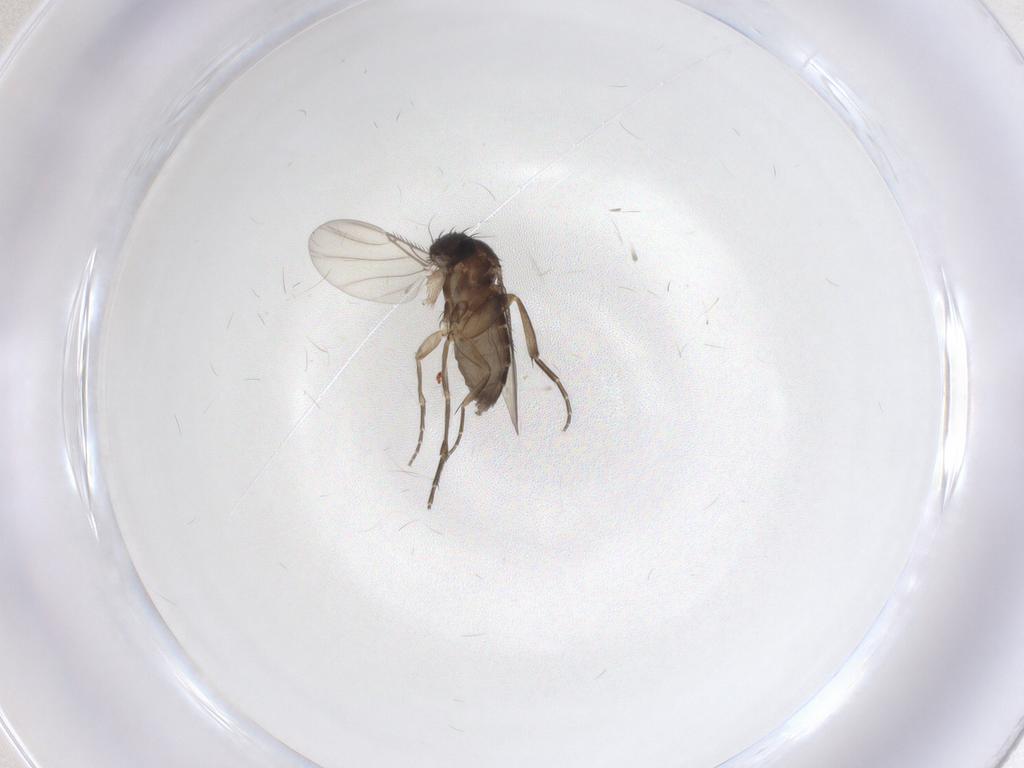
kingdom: Animalia
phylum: Arthropoda
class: Insecta
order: Diptera
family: Phoridae
